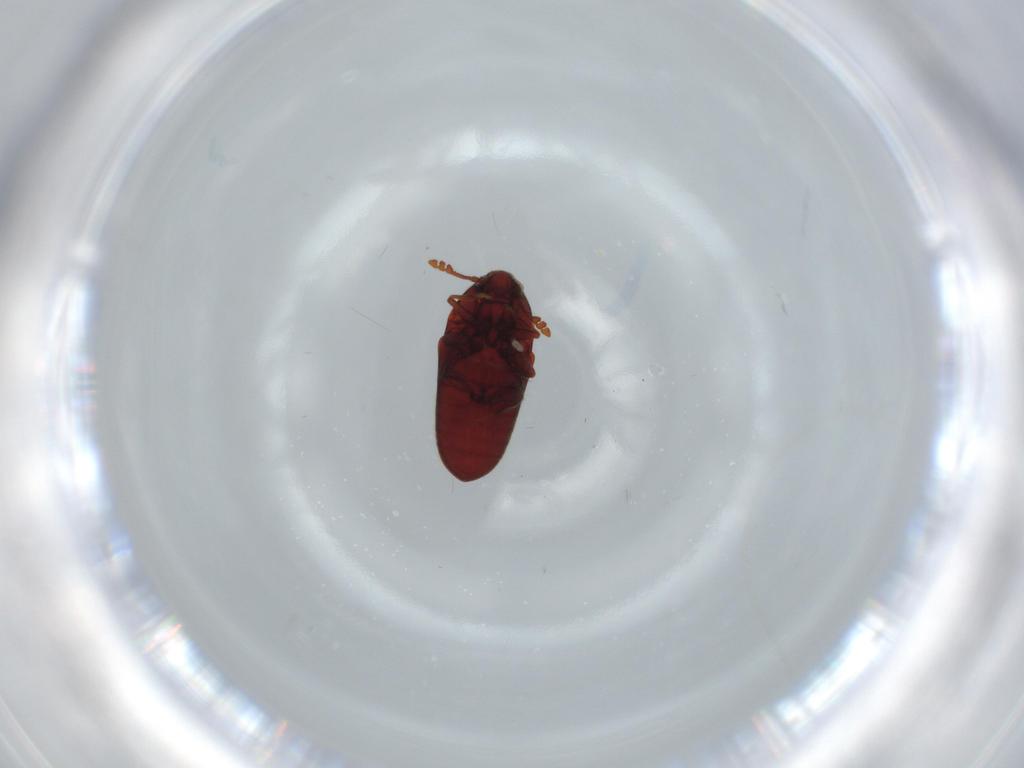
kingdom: Animalia
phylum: Arthropoda
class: Insecta
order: Coleoptera
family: Throscidae
